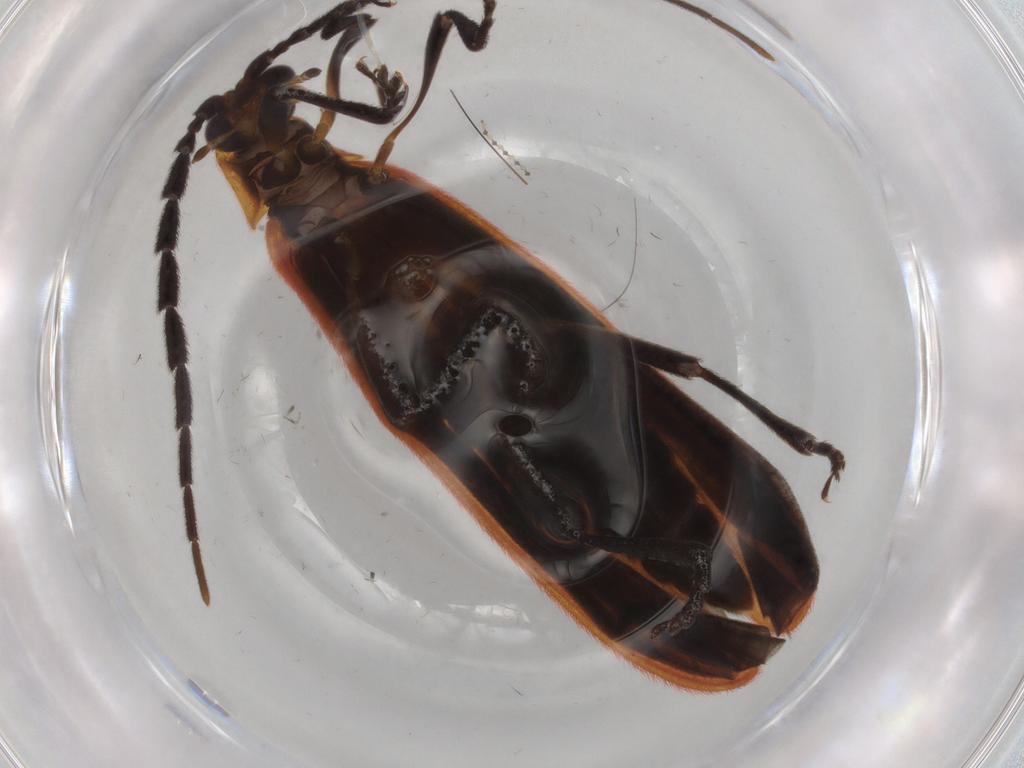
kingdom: Animalia
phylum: Arthropoda
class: Insecta
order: Coleoptera
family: Lycidae
